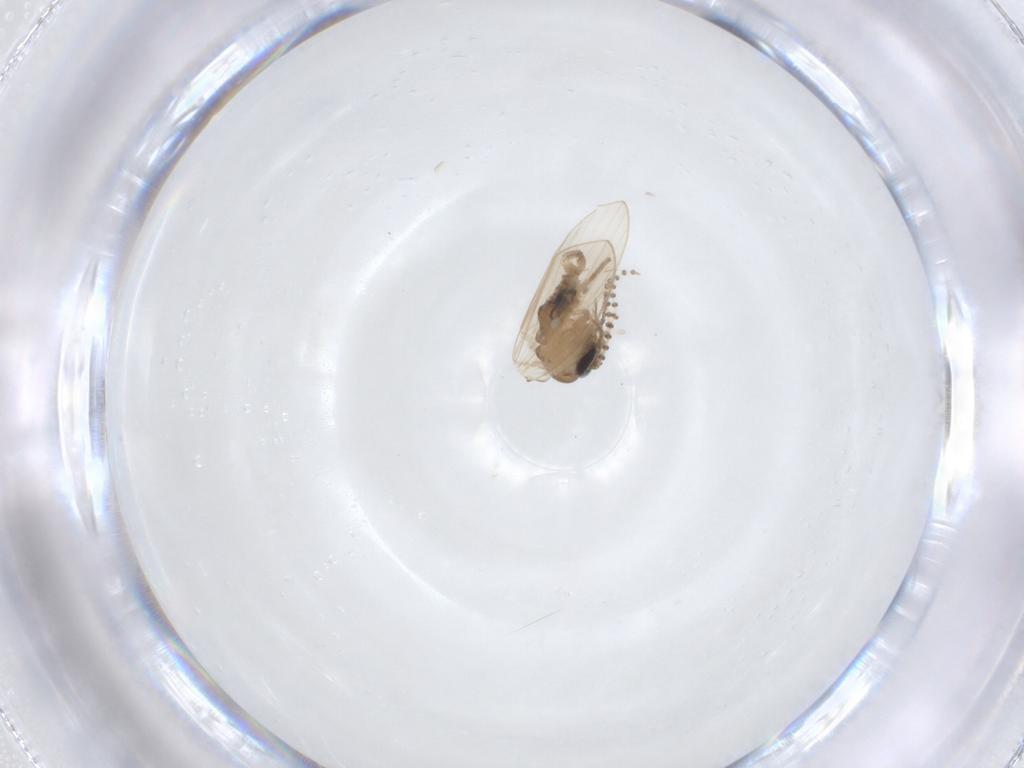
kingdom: Animalia
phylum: Arthropoda
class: Insecta
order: Diptera
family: Psychodidae
